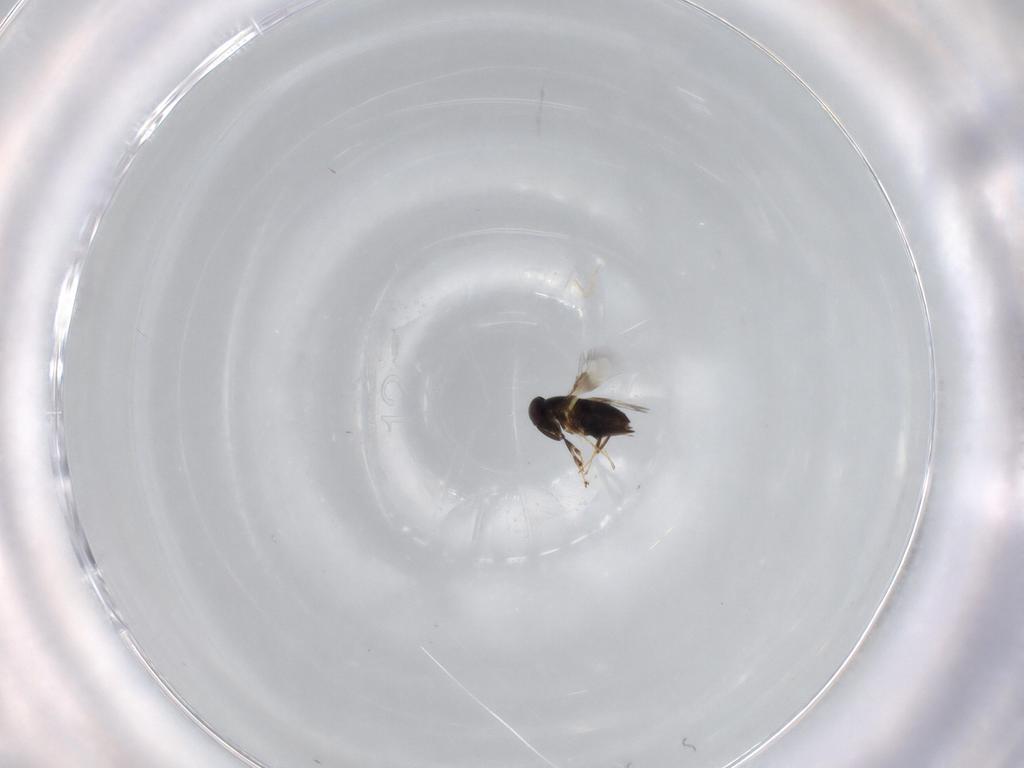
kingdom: Animalia
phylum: Arthropoda
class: Insecta
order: Hymenoptera
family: Platygastridae
